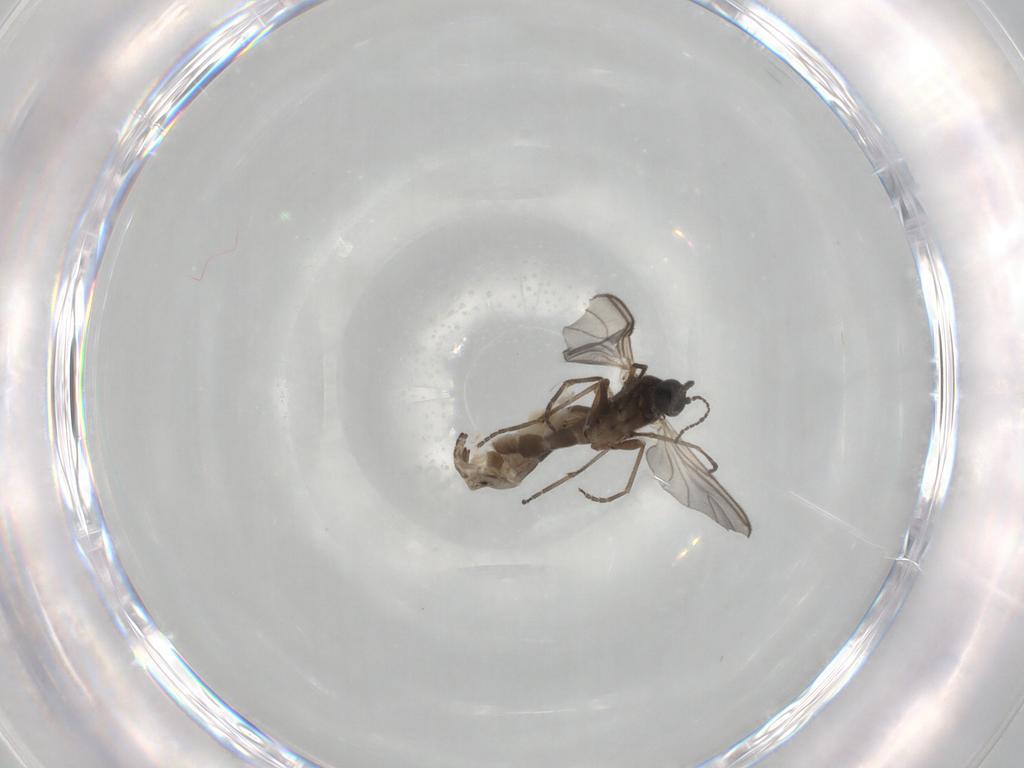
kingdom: Animalia
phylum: Arthropoda
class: Insecta
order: Diptera
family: Sciaridae
